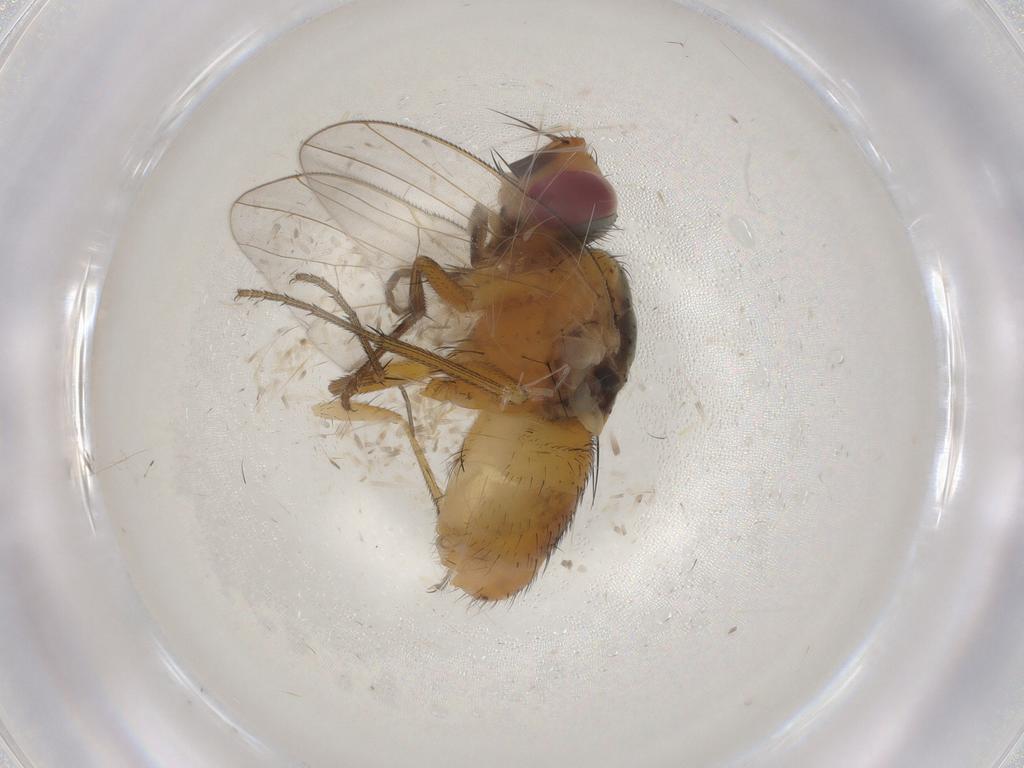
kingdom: Animalia
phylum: Arthropoda
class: Insecta
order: Diptera
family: Muscidae
